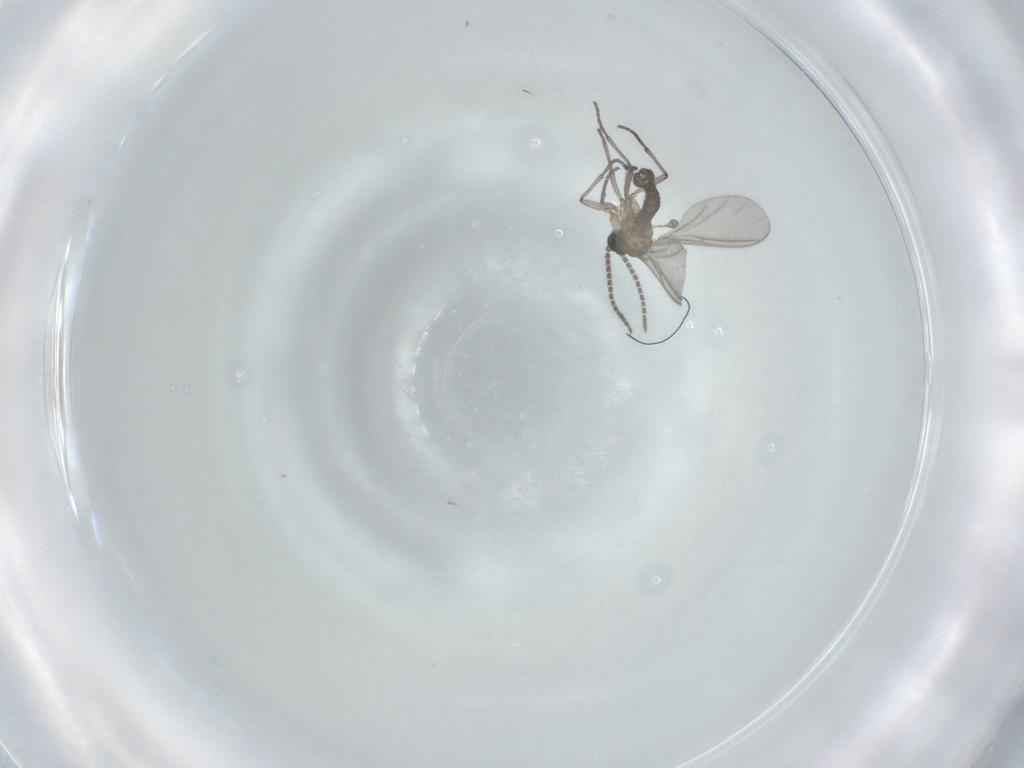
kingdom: Animalia
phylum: Arthropoda
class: Insecta
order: Diptera
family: Sciaridae
